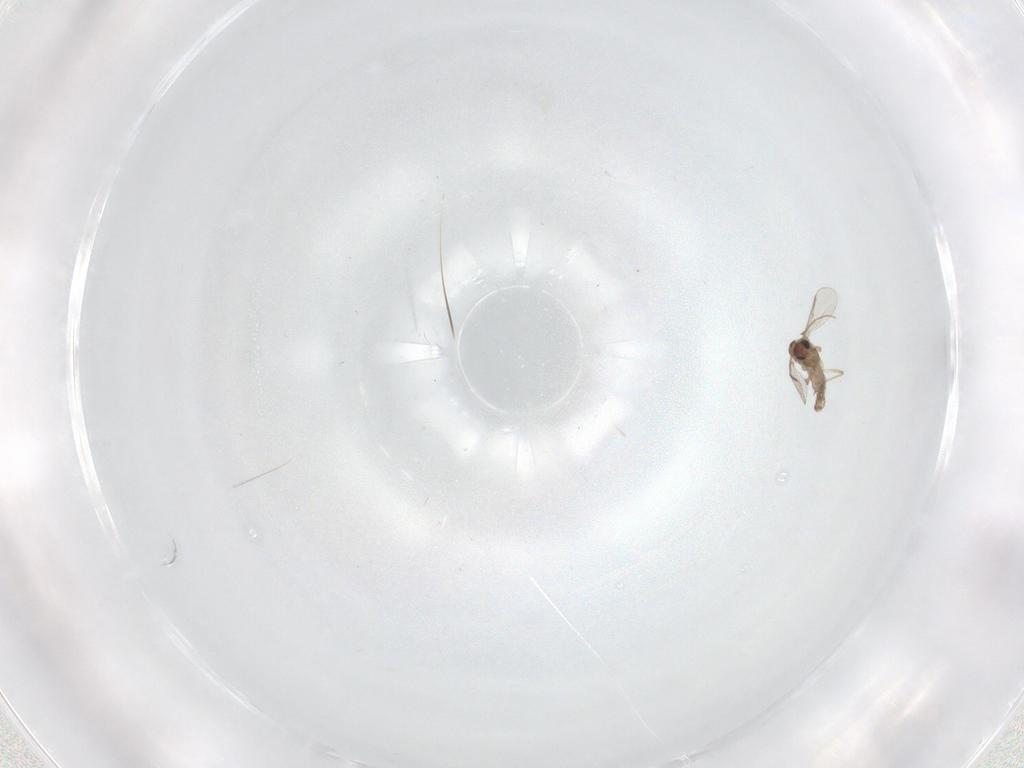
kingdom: Animalia
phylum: Arthropoda
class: Insecta
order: Diptera
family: Chironomidae
